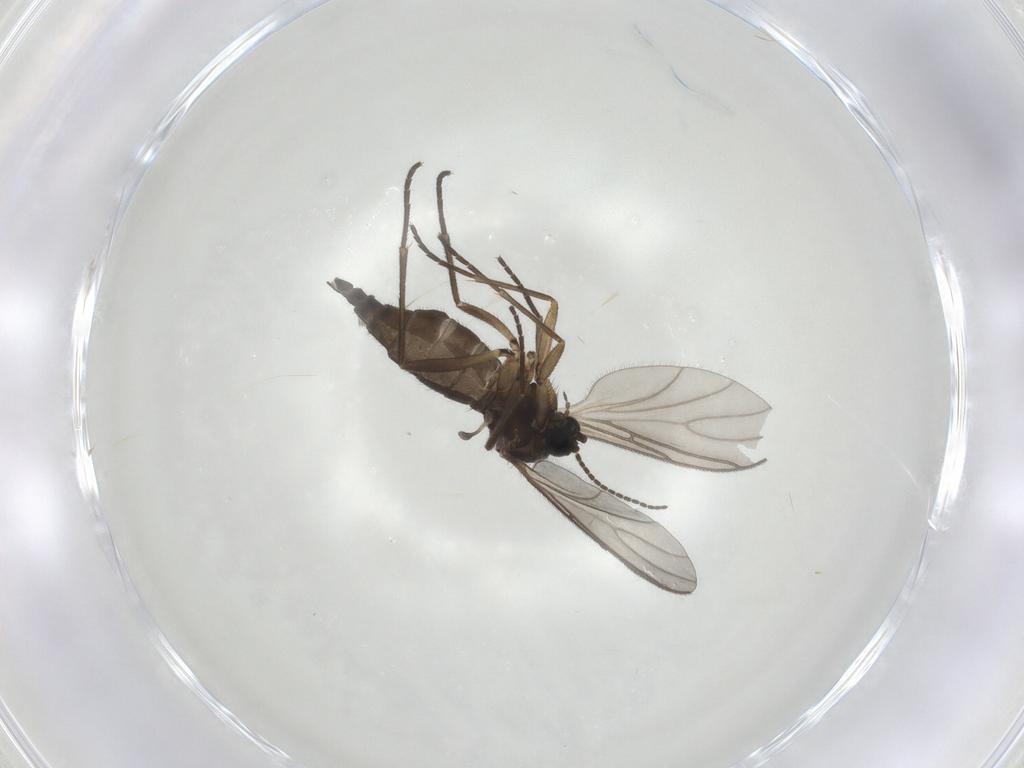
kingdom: Animalia
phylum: Arthropoda
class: Insecta
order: Diptera
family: Sciaridae
